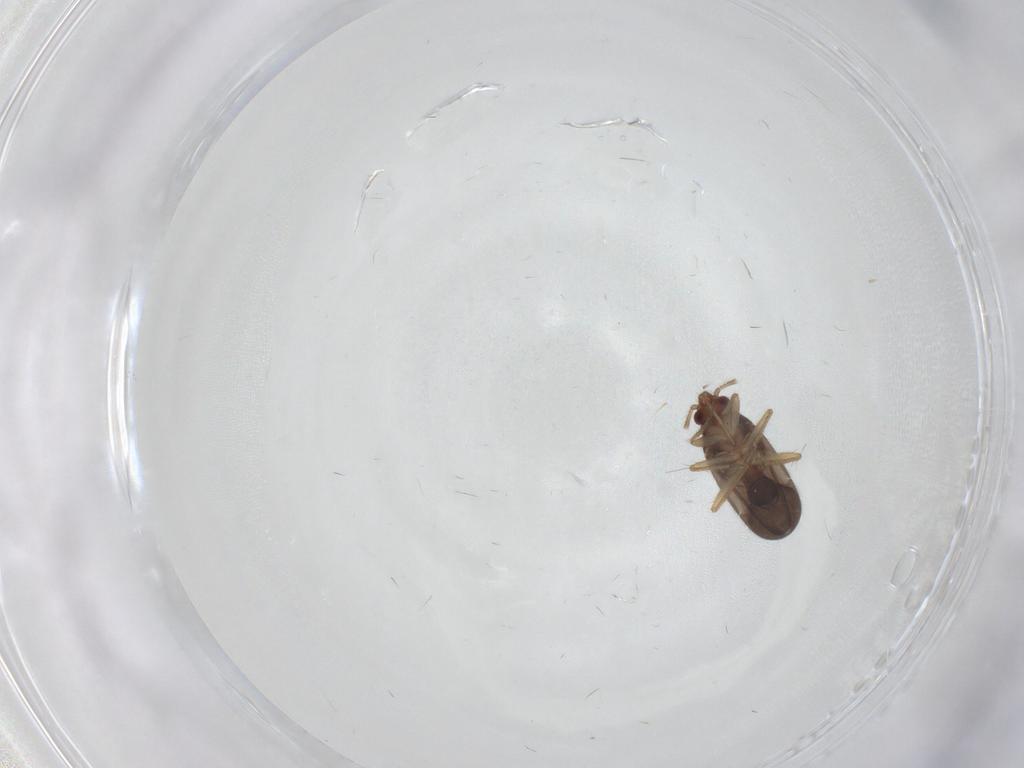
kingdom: Animalia
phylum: Arthropoda
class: Insecta
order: Hemiptera
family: Ceratocombidae
